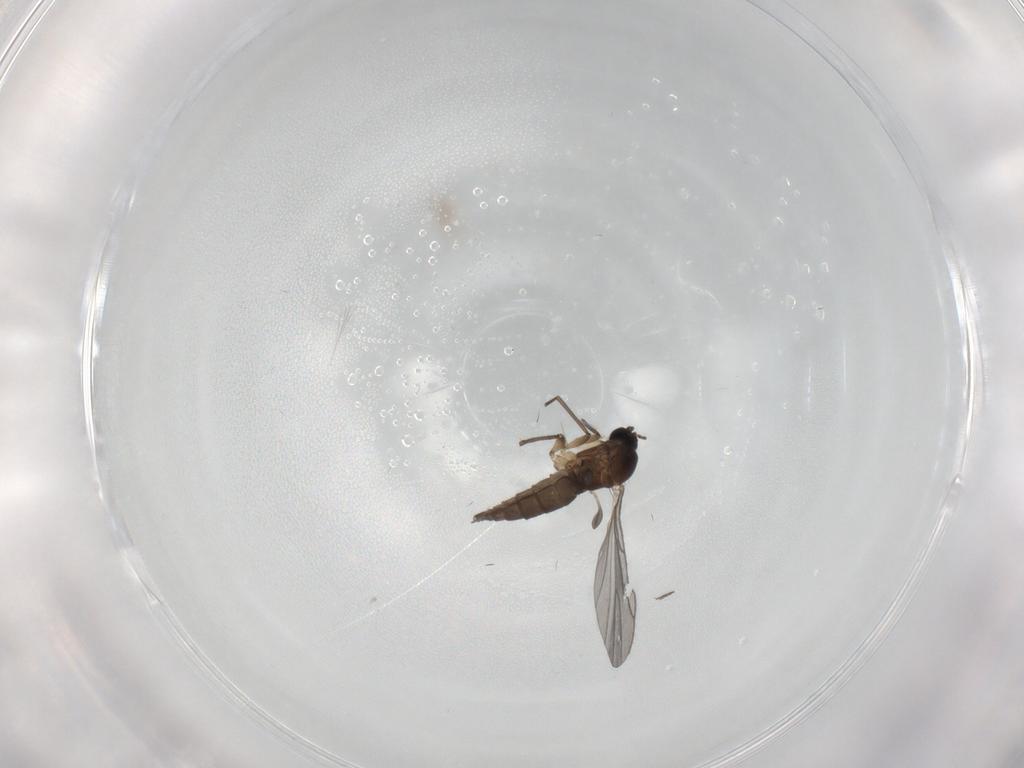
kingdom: Animalia
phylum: Arthropoda
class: Insecta
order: Diptera
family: Sciaridae
